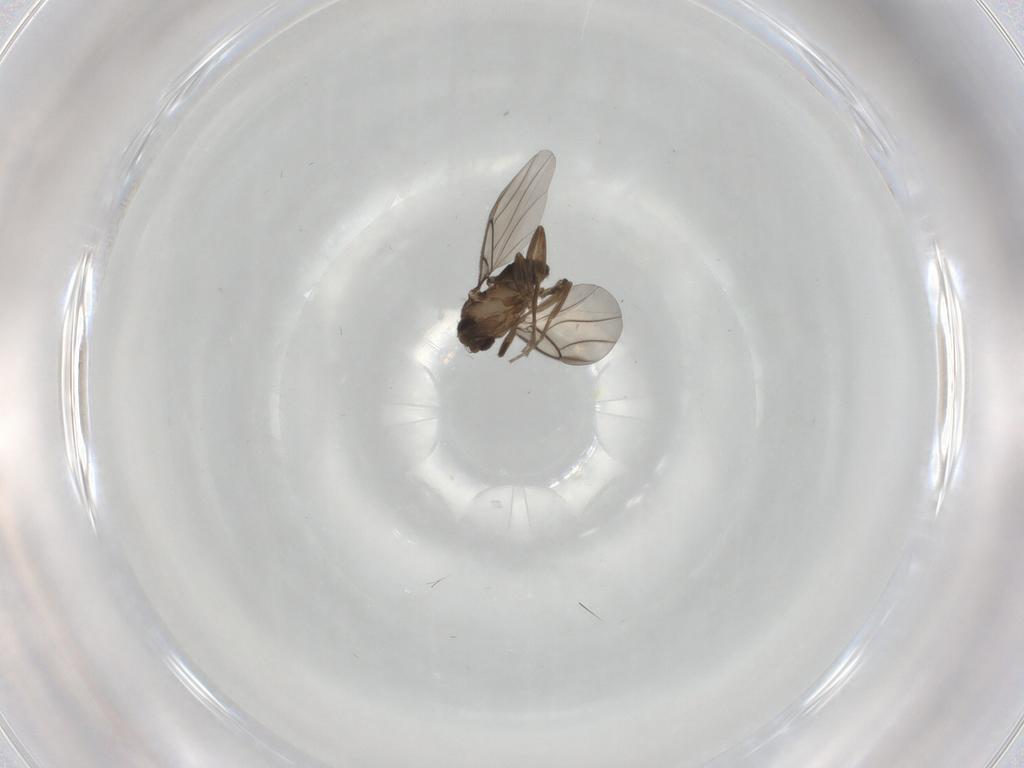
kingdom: Animalia
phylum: Arthropoda
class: Insecta
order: Diptera
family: Phoridae
